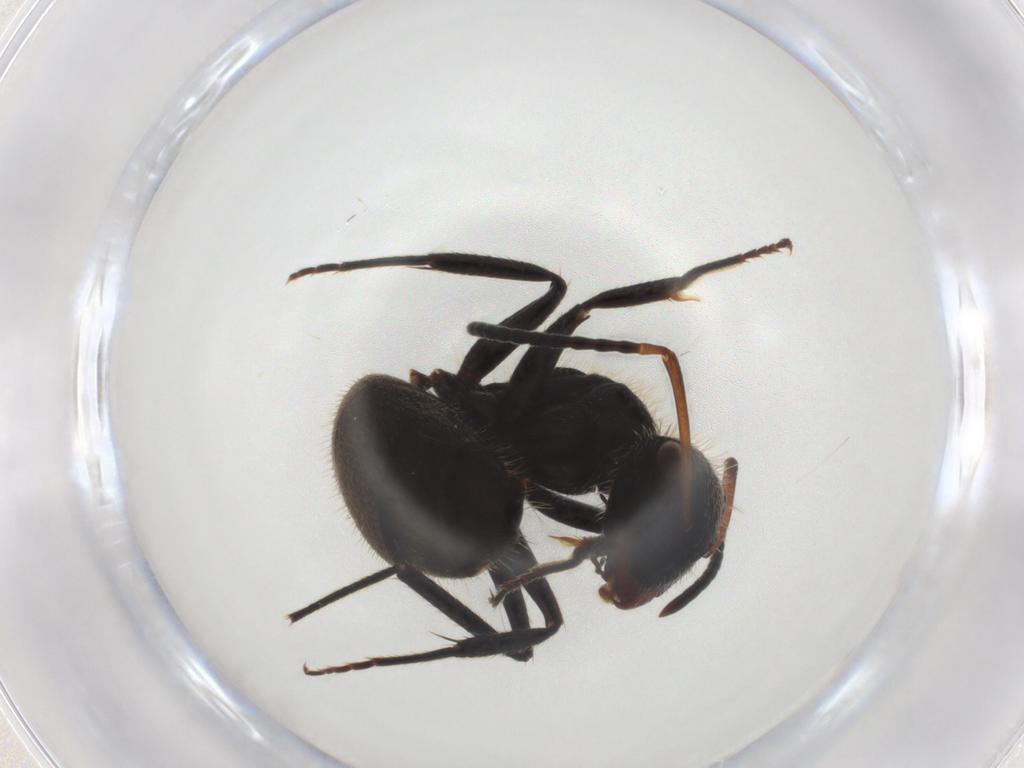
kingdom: Animalia
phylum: Arthropoda
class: Insecta
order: Hymenoptera
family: Formicidae
